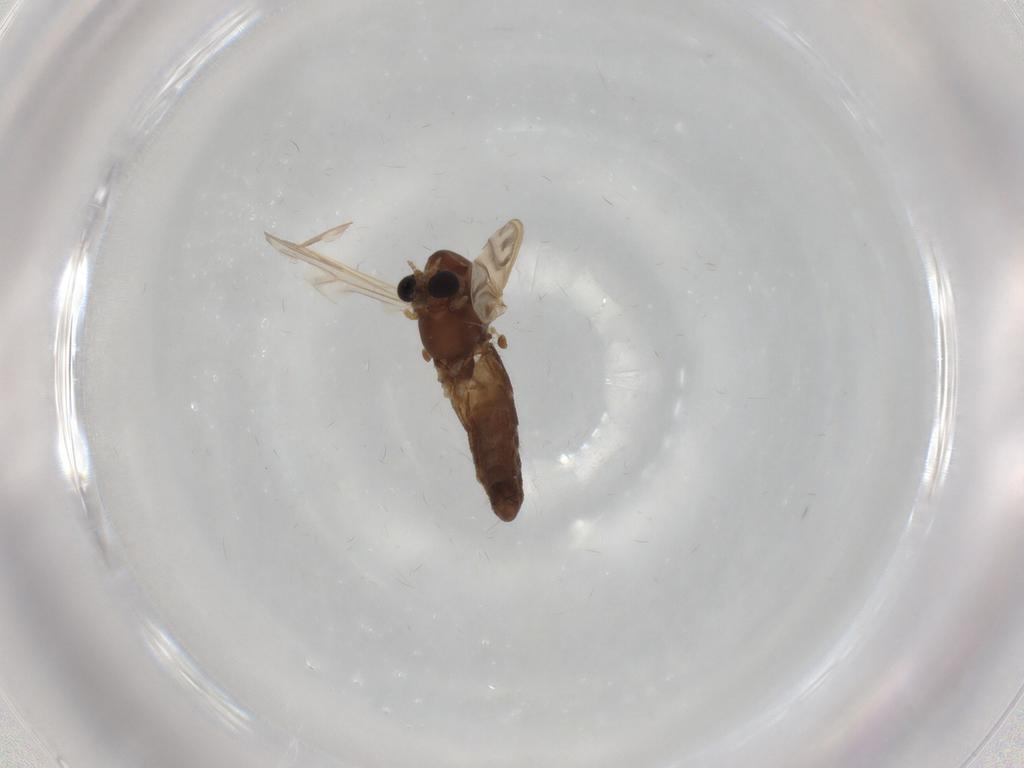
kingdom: Animalia
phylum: Arthropoda
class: Insecta
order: Diptera
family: Chironomidae
